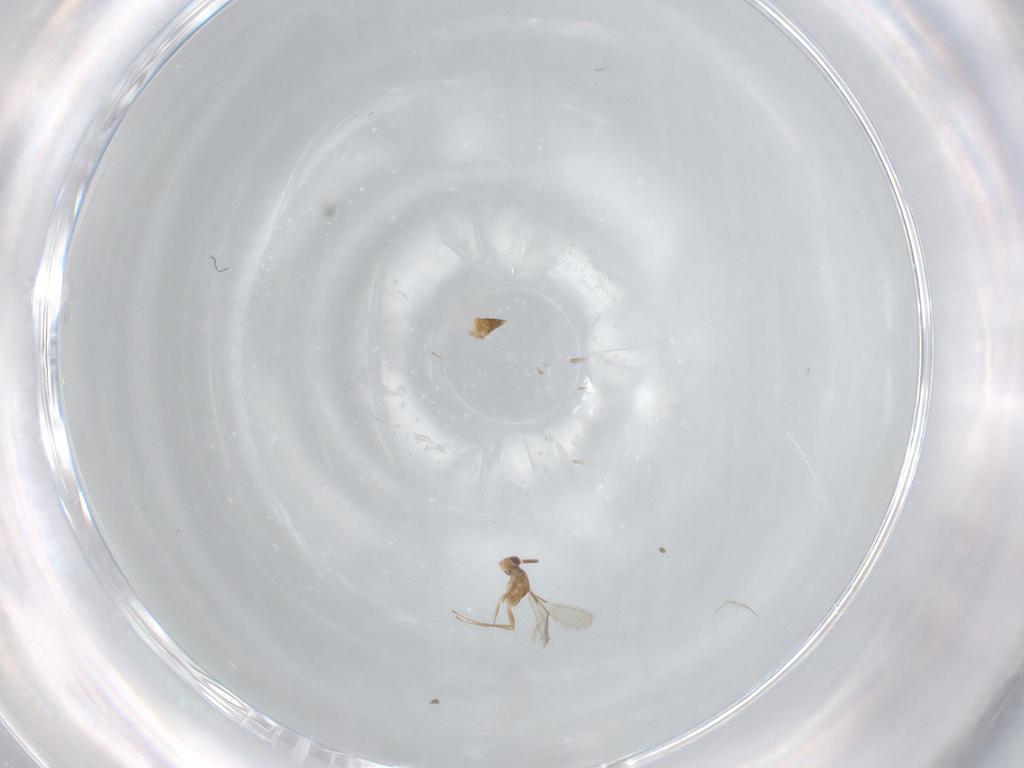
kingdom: Animalia
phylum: Arthropoda
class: Insecta
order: Hymenoptera
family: Mymaridae
